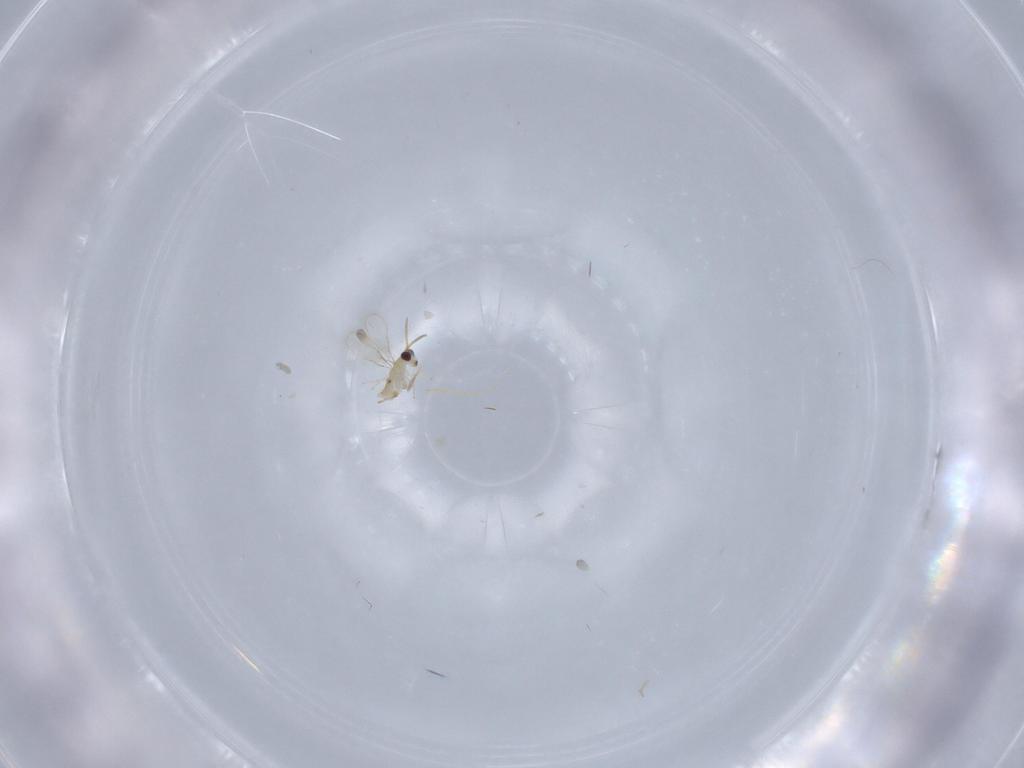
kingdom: Animalia
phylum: Arthropoda
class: Insecta
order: Hymenoptera
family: Aphelinidae
